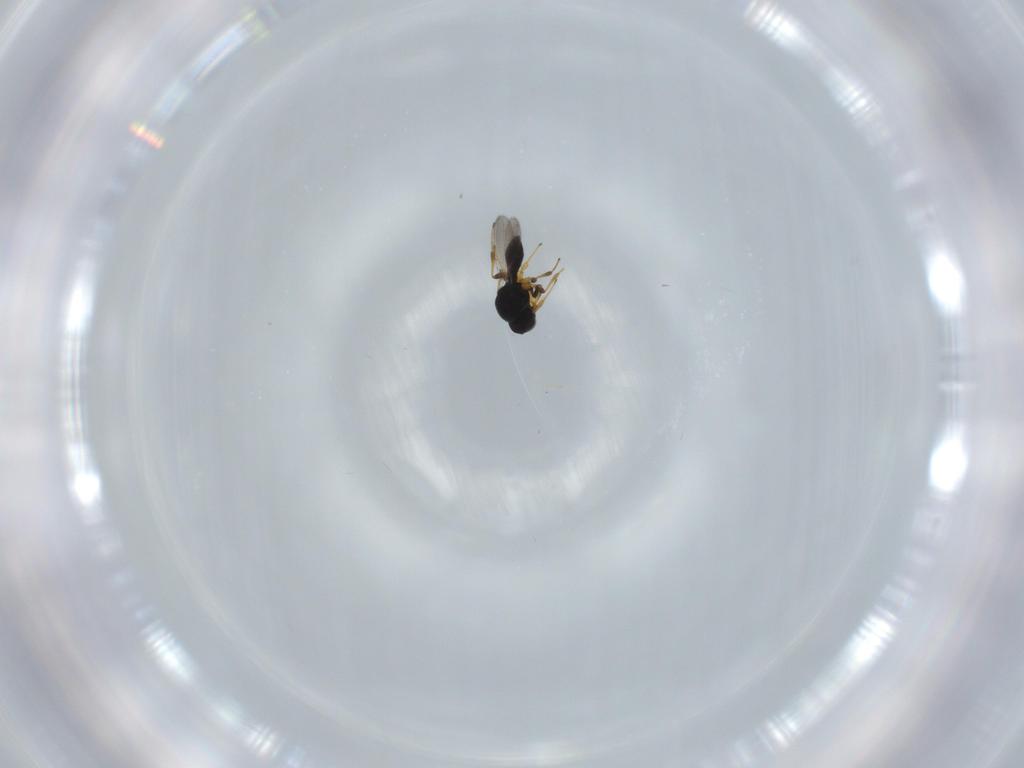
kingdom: Animalia
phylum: Arthropoda
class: Insecta
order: Hymenoptera
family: Platygastridae
